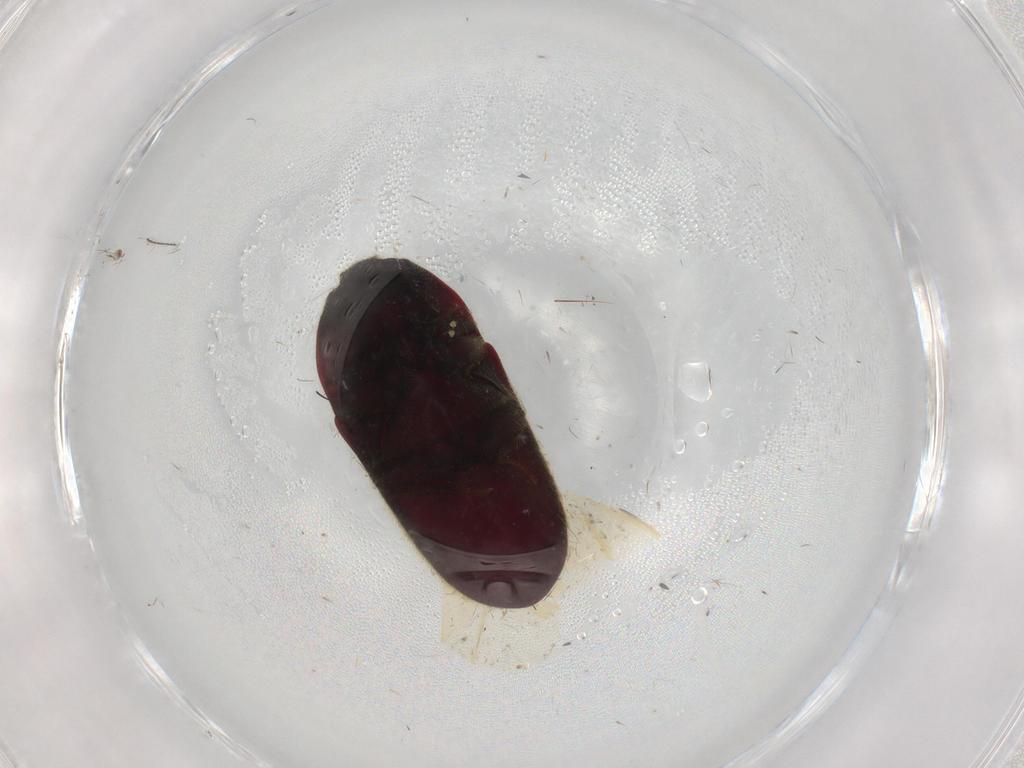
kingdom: Animalia
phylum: Arthropoda
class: Insecta
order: Coleoptera
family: Throscidae
